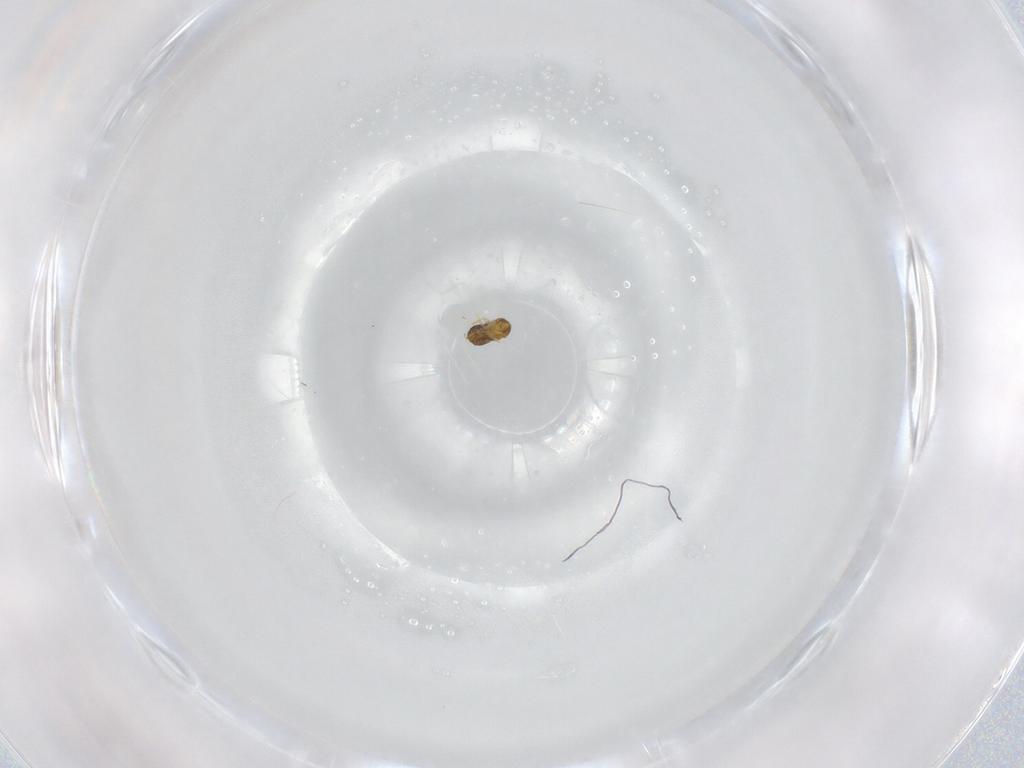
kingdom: Animalia
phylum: Arthropoda
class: Insecta
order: Hymenoptera
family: Trichogrammatidae
